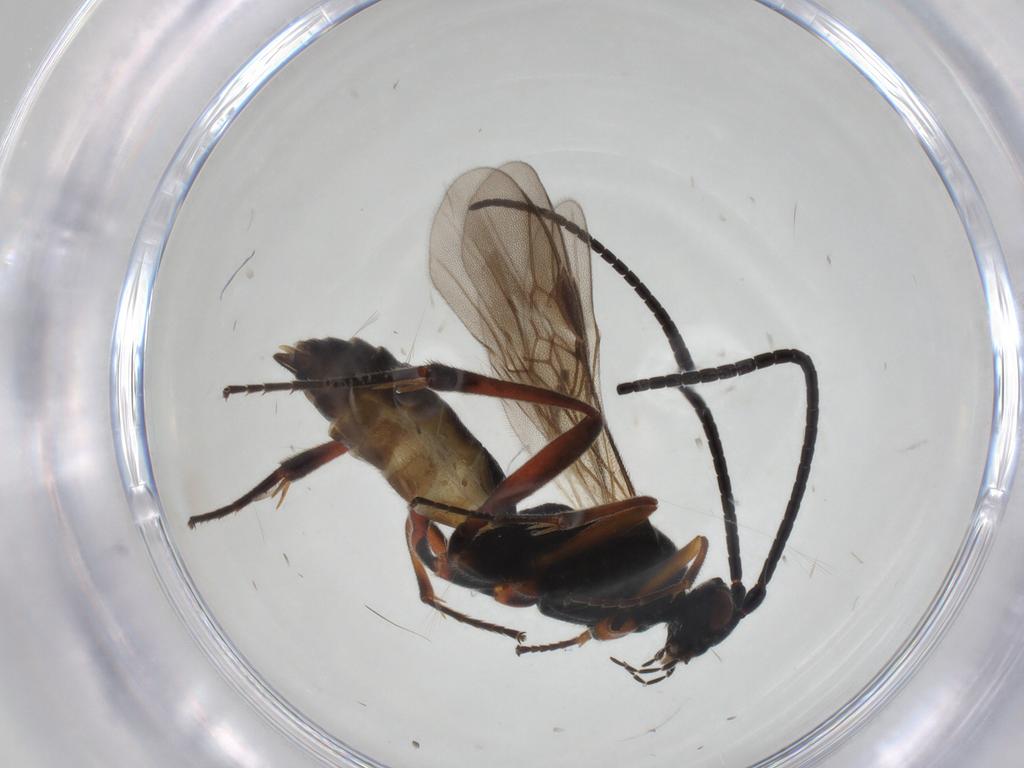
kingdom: Animalia
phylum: Arthropoda
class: Insecta
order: Hymenoptera
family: Braconidae
